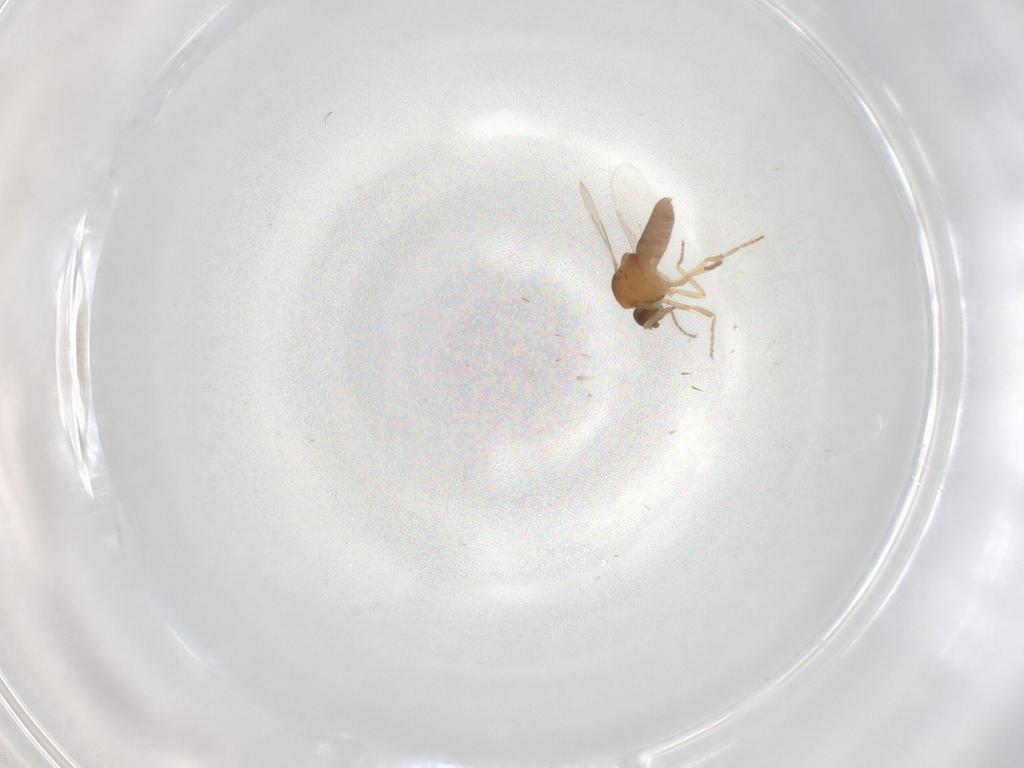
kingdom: Animalia
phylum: Arthropoda
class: Insecta
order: Diptera
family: Ceratopogonidae
